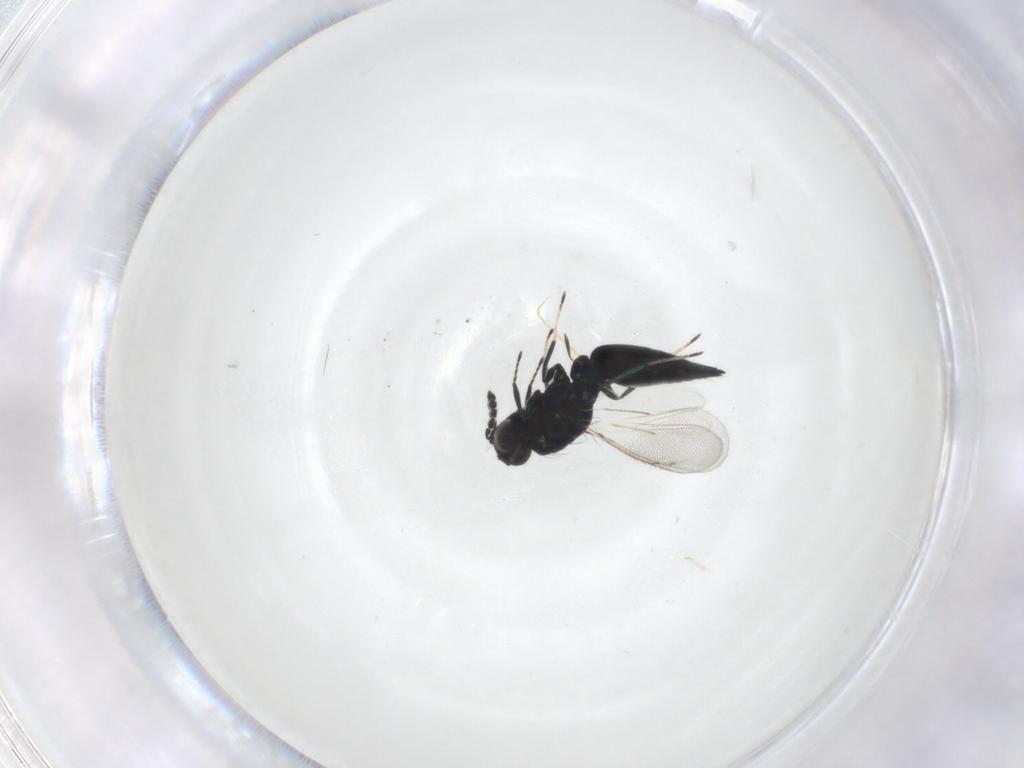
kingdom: Animalia
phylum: Arthropoda
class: Insecta
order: Hymenoptera
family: Eulophidae
